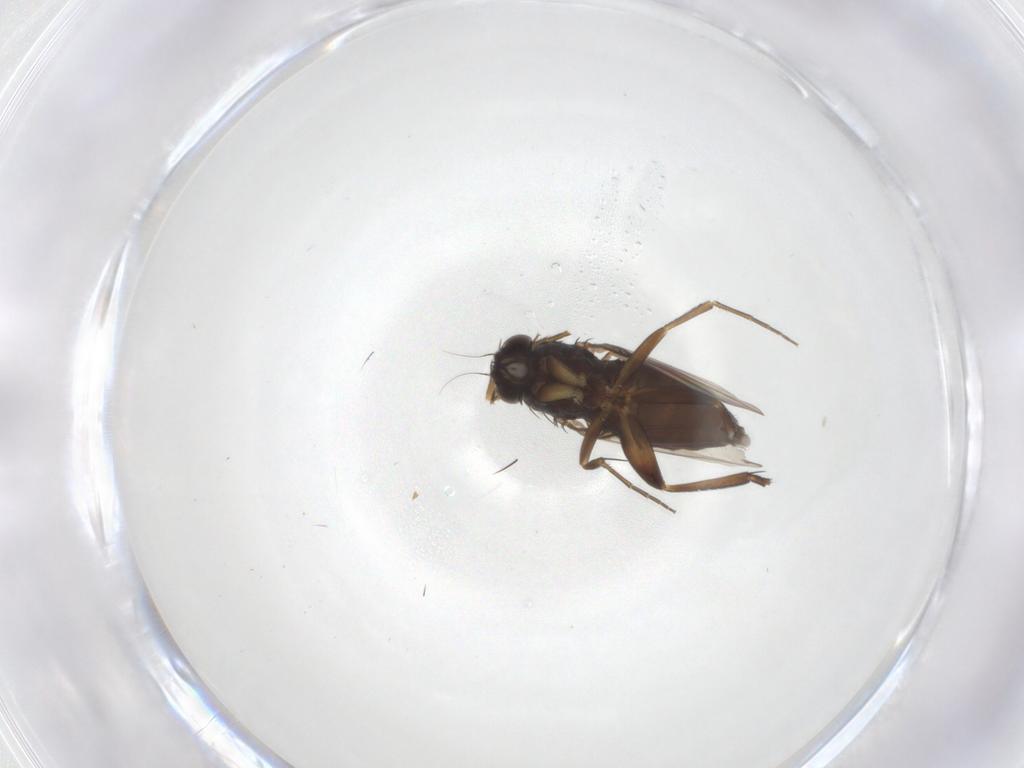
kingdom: Animalia
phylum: Arthropoda
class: Insecta
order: Diptera
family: Phoridae
